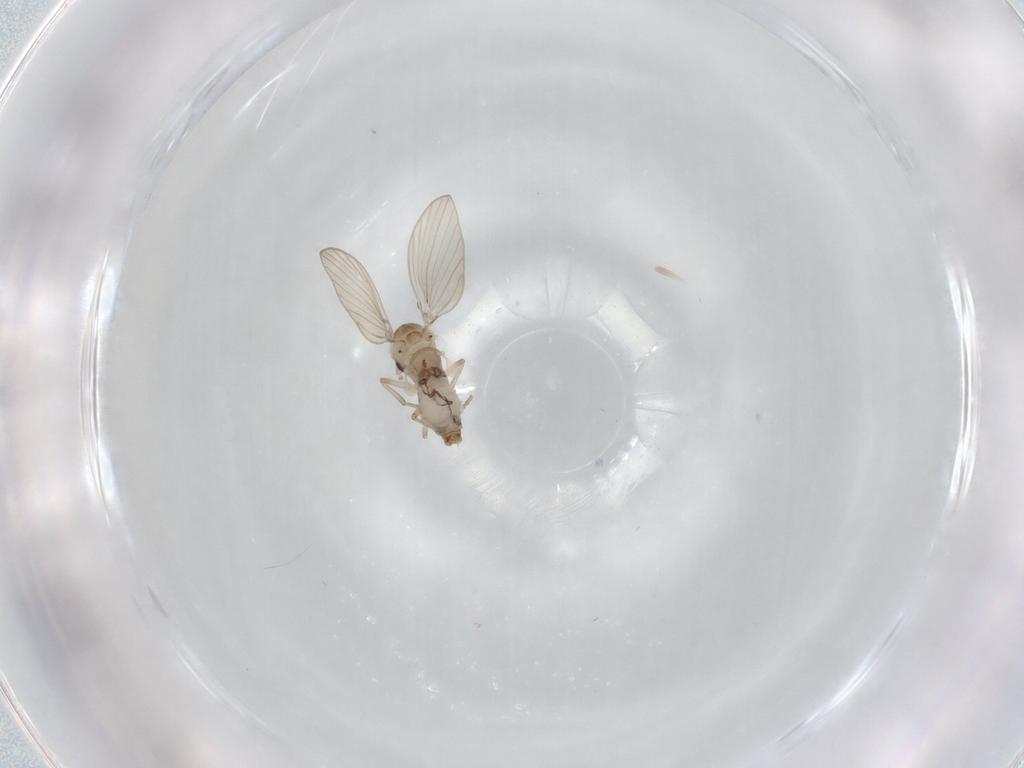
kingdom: Animalia
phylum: Arthropoda
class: Insecta
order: Diptera
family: Psychodidae
